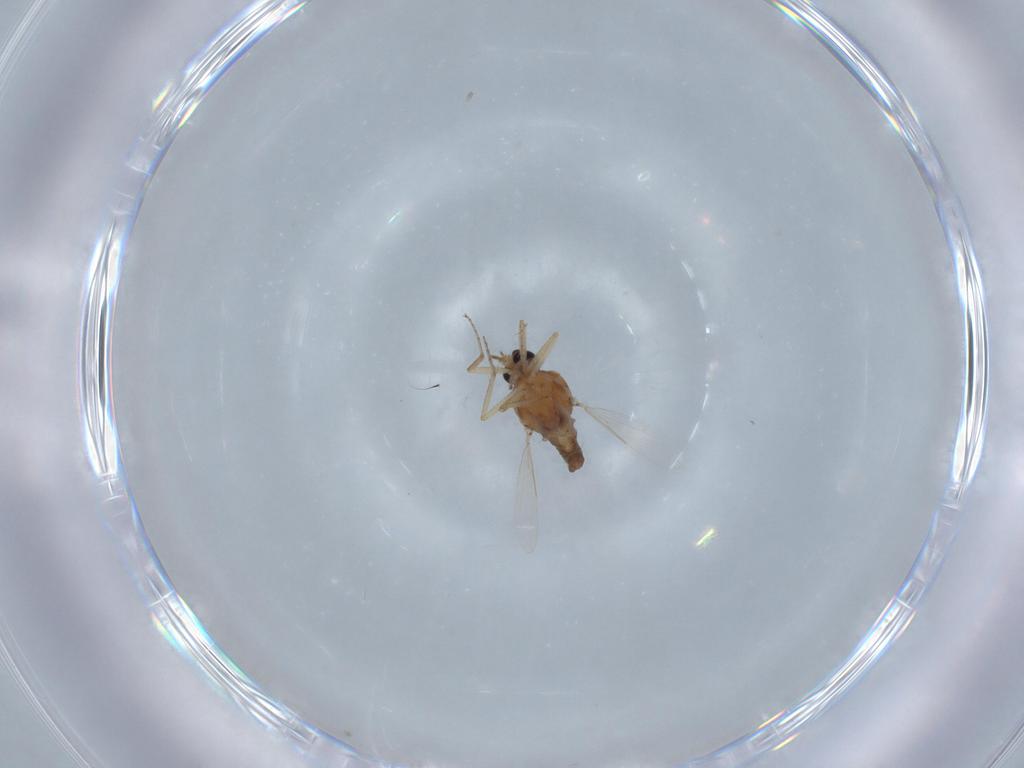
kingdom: Animalia
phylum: Arthropoda
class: Insecta
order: Diptera
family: Ceratopogonidae
